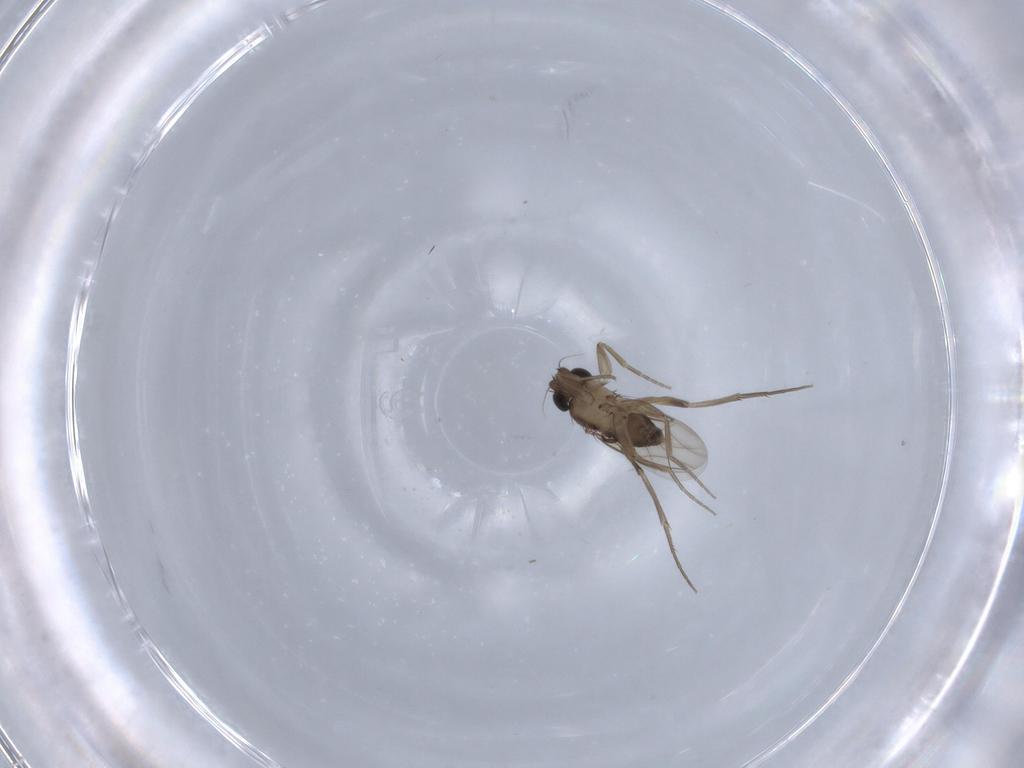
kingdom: Animalia
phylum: Arthropoda
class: Insecta
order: Diptera
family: Phoridae
